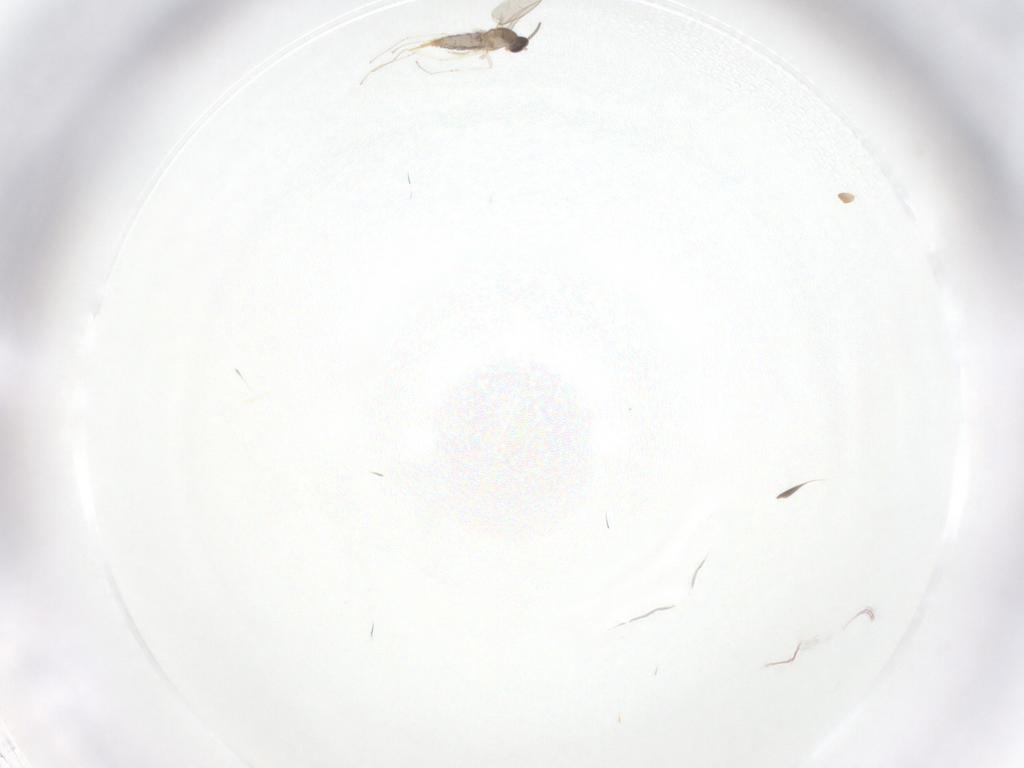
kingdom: Animalia
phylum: Arthropoda
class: Insecta
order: Diptera
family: Cecidomyiidae
